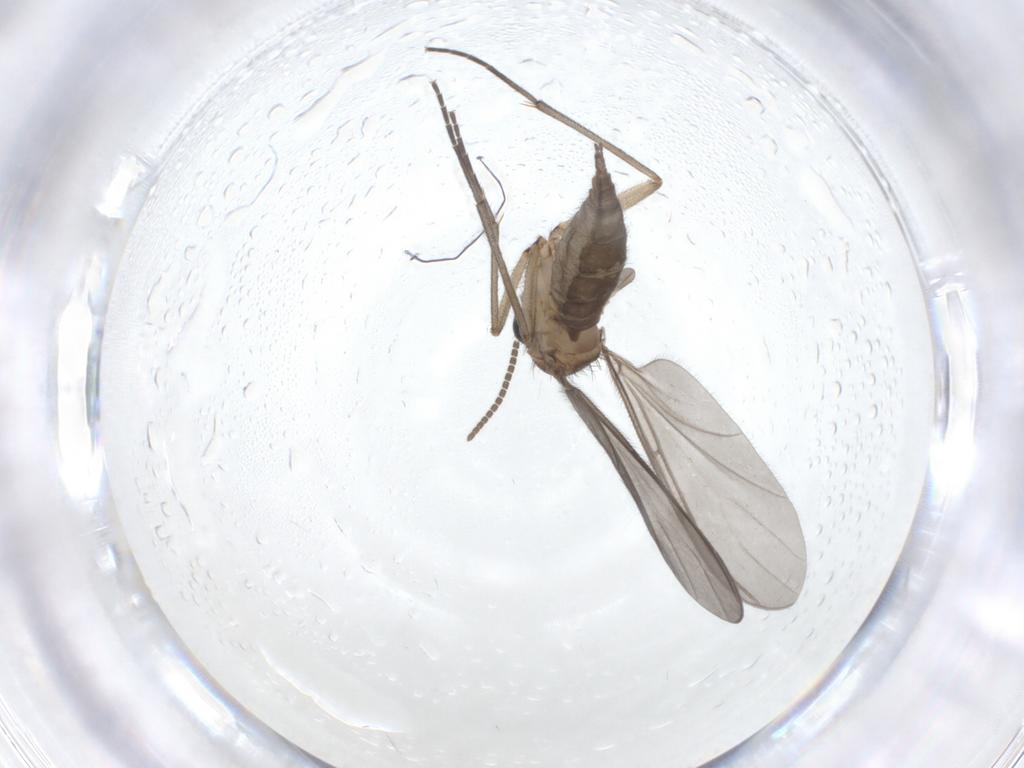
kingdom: Animalia
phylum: Arthropoda
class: Insecta
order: Diptera
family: Sciaridae
